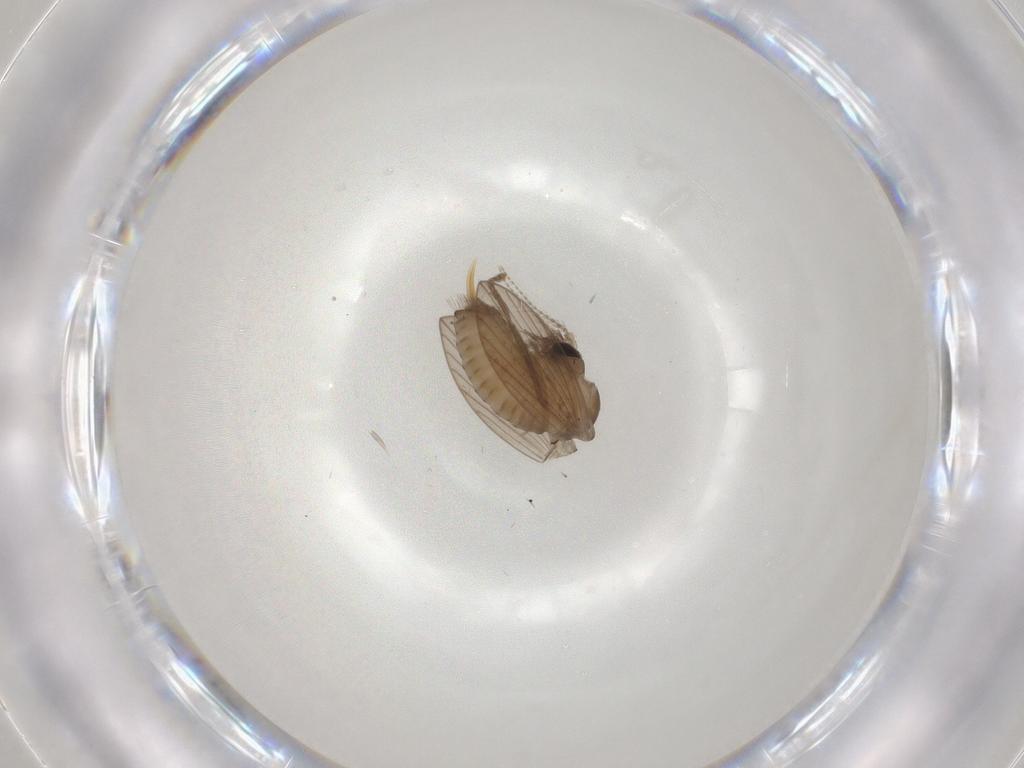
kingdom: Animalia
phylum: Arthropoda
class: Insecta
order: Diptera
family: Psychodidae
